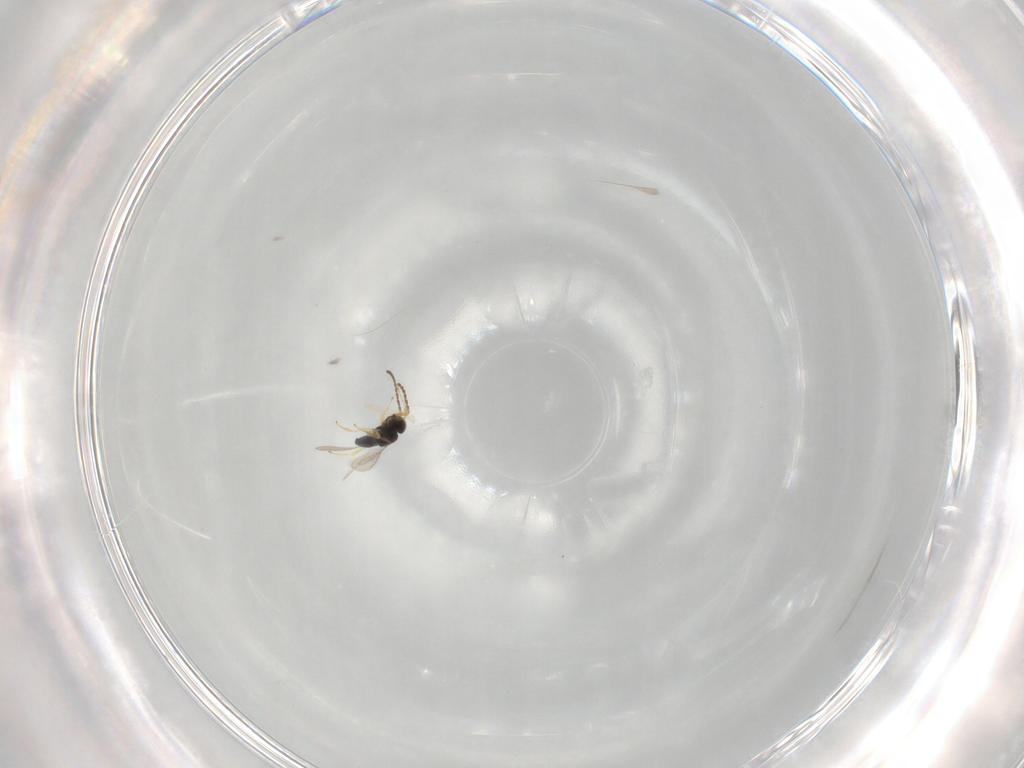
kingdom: Animalia
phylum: Arthropoda
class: Insecta
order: Hymenoptera
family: Scelionidae
